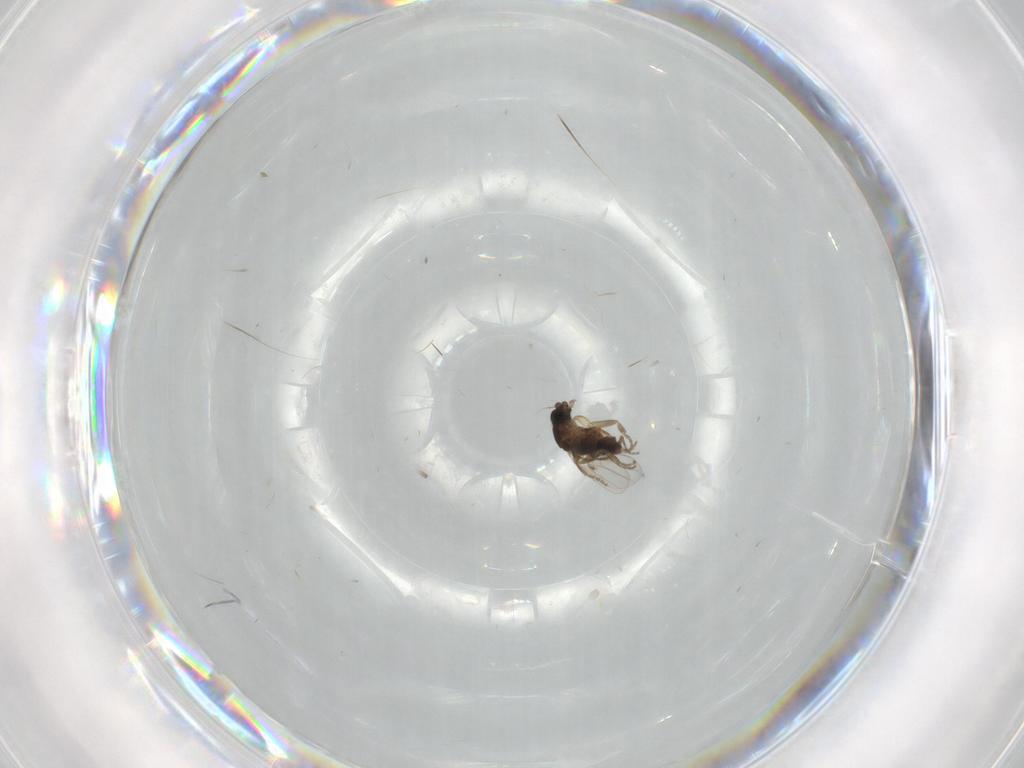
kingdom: Animalia
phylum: Arthropoda
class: Insecta
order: Diptera
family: Phoridae
